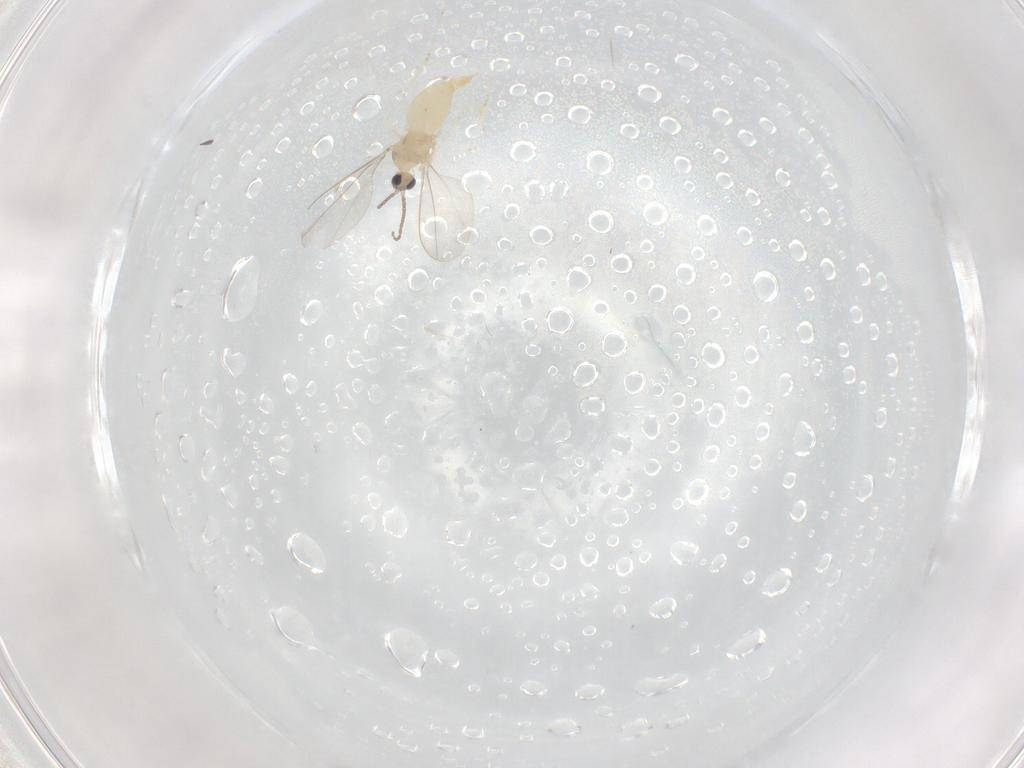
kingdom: Animalia
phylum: Arthropoda
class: Insecta
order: Diptera
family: Cecidomyiidae
